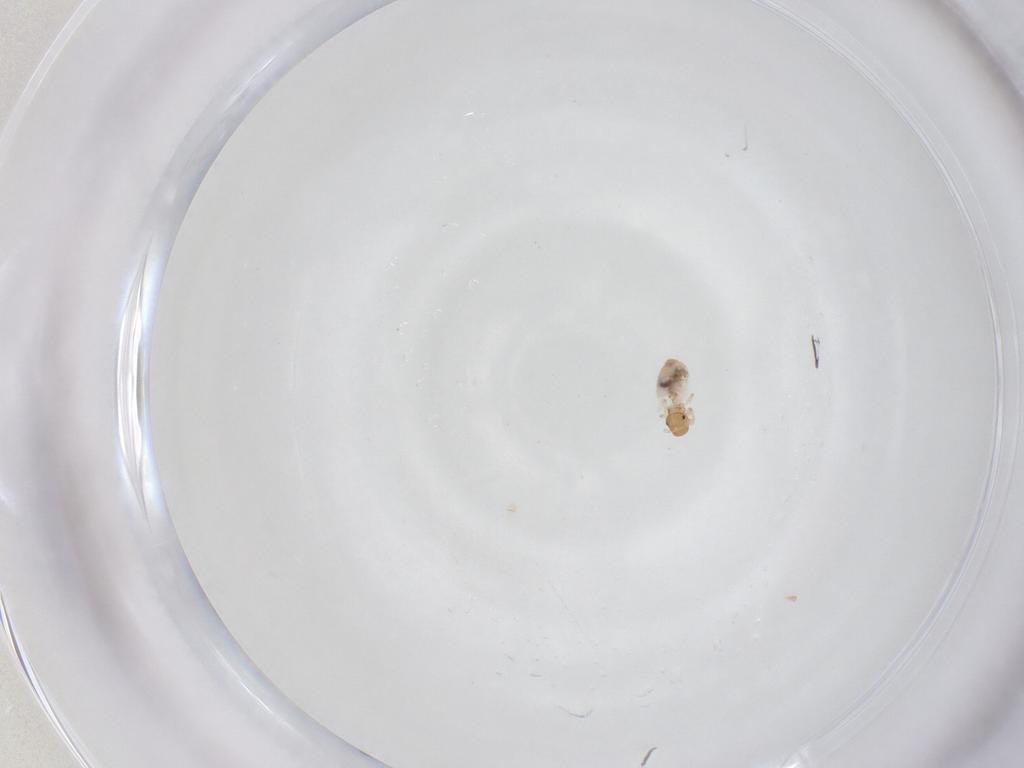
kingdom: Animalia
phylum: Arthropoda
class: Insecta
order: Psocodea
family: Philotarsidae
